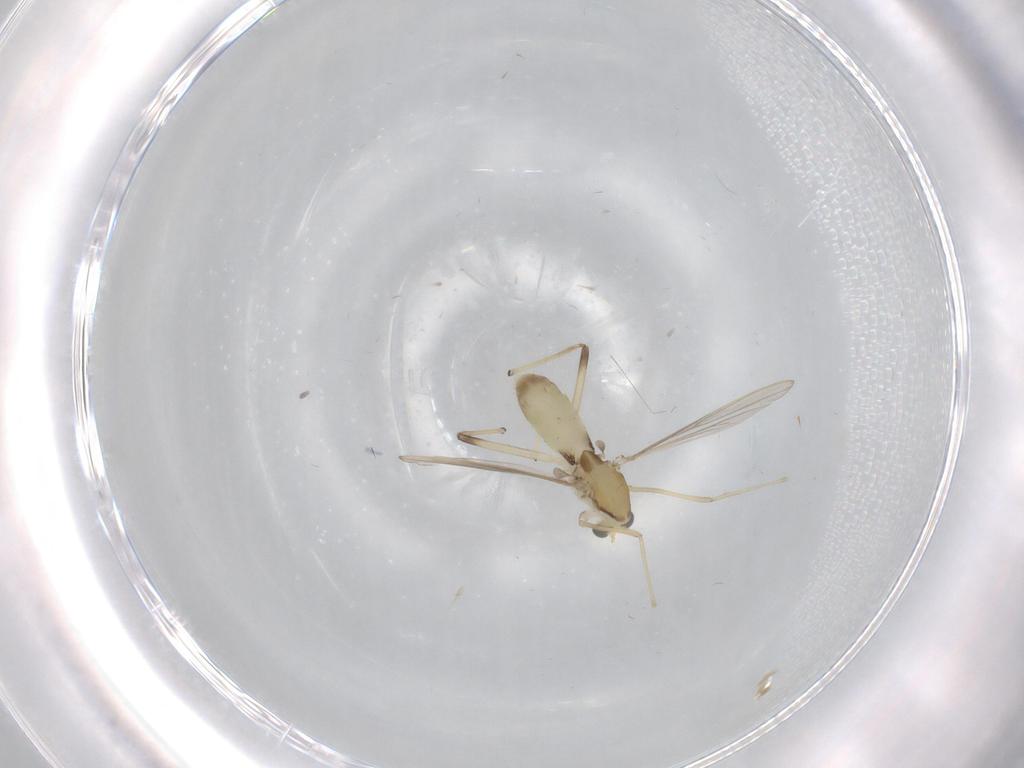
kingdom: Animalia
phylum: Arthropoda
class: Insecta
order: Diptera
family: Chironomidae
